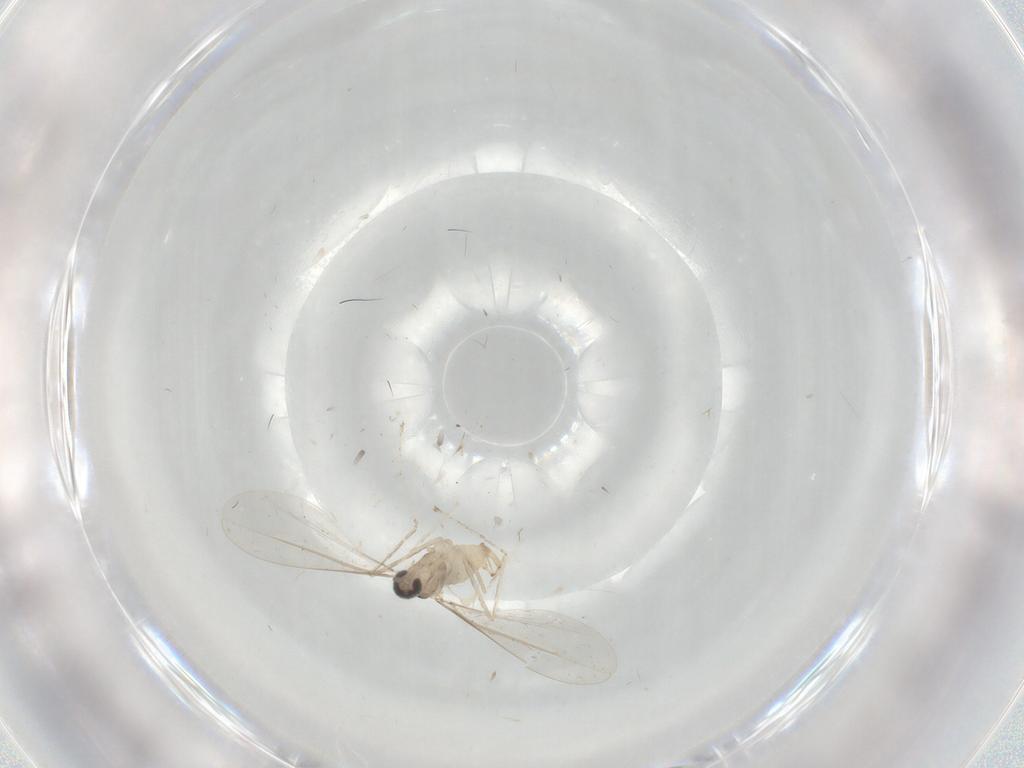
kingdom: Animalia
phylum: Arthropoda
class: Insecta
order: Diptera
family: Cecidomyiidae
